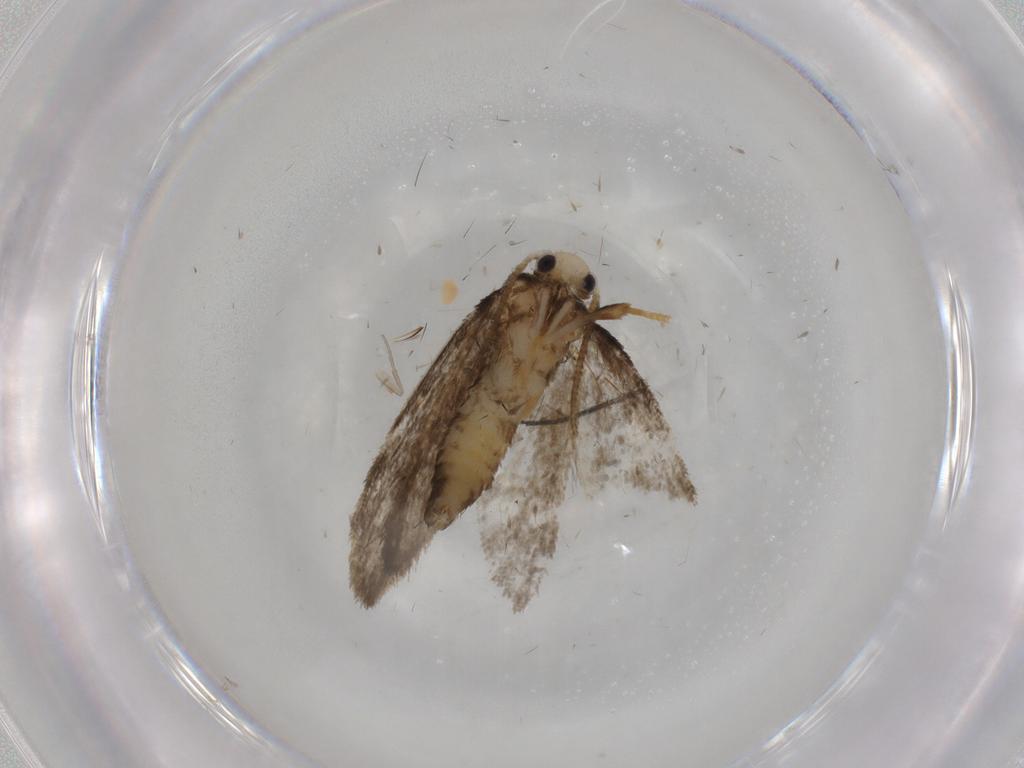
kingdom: Animalia
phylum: Arthropoda
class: Insecta
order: Lepidoptera
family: Psychidae
